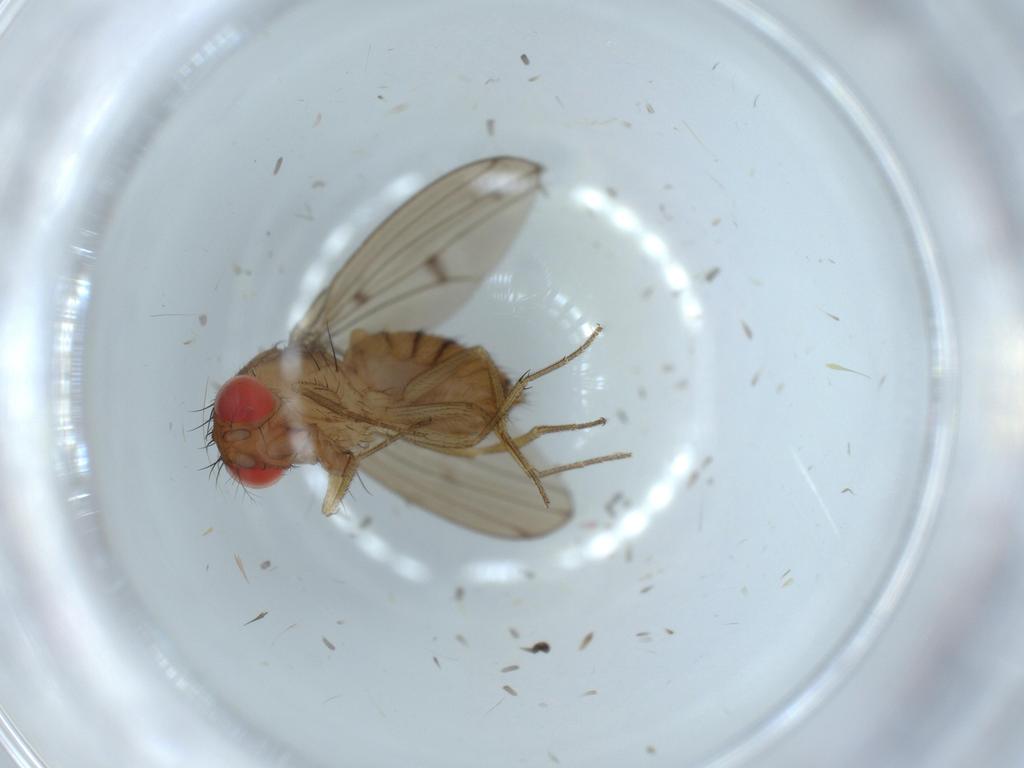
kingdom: Animalia
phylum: Arthropoda
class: Insecta
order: Diptera
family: Drosophilidae
